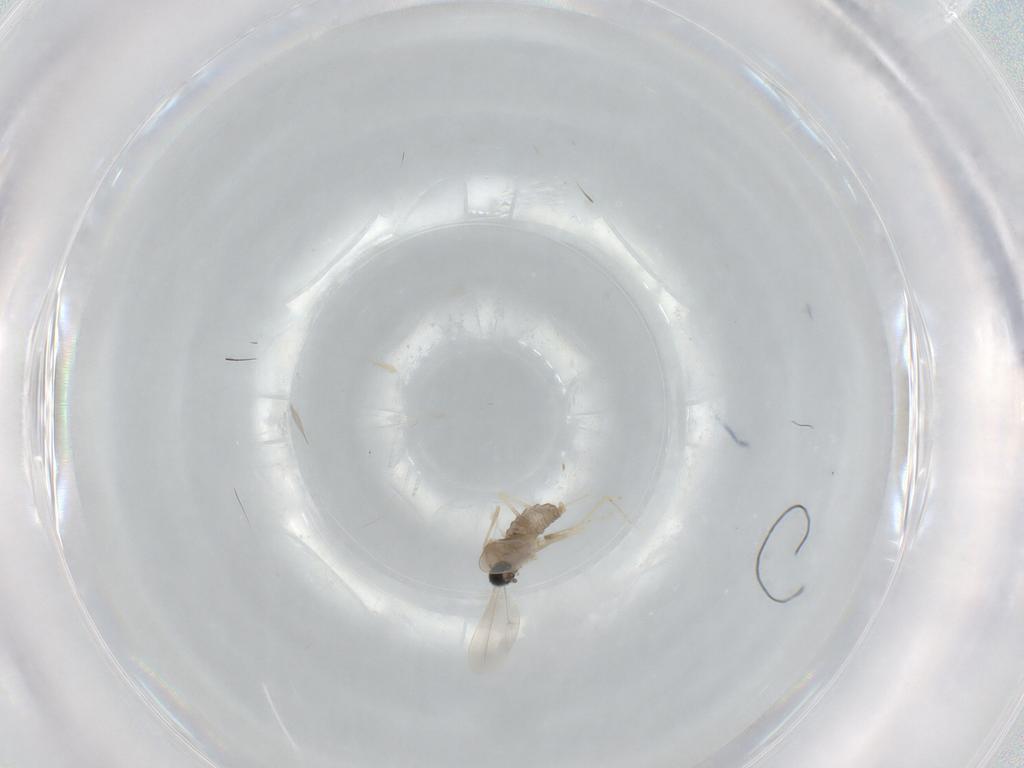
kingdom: Animalia
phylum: Arthropoda
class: Insecta
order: Diptera
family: Cecidomyiidae
